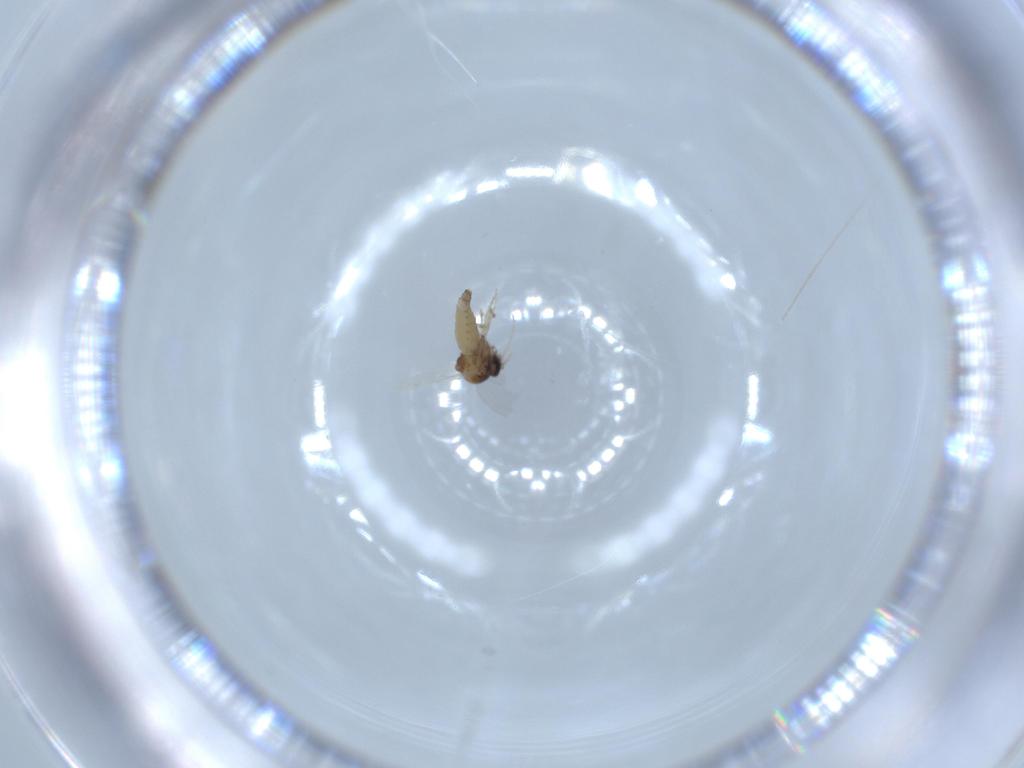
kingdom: Animalia
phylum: Arthropoda
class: Insecta
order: Diptera
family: Ceratopogonidae
